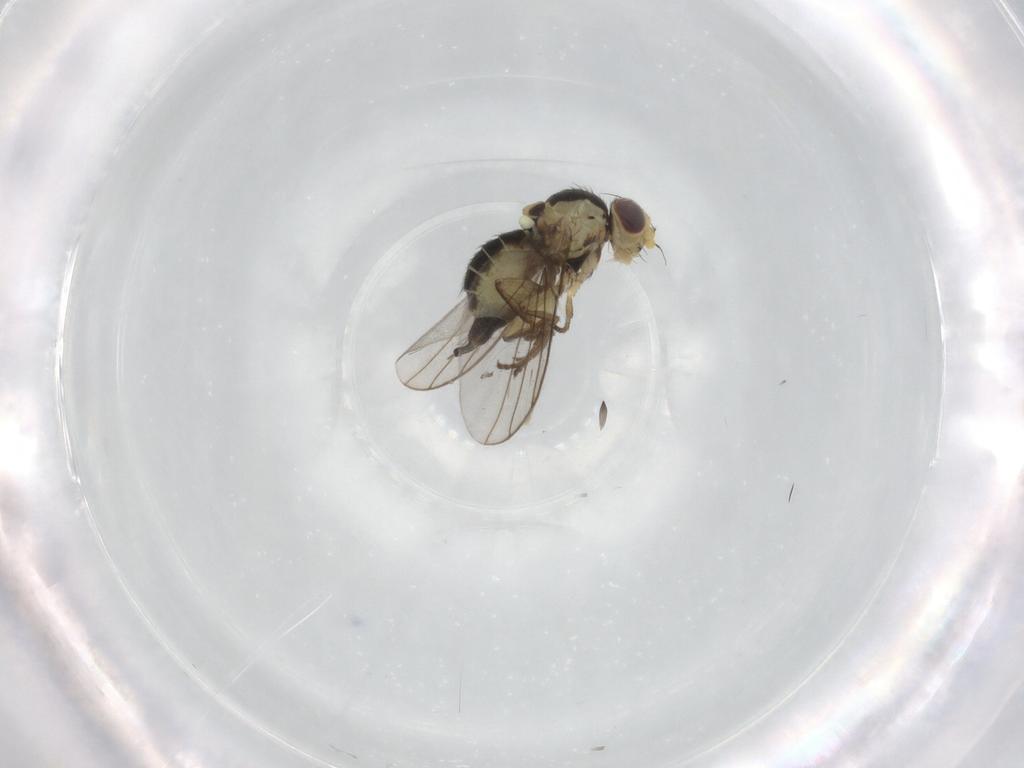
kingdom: Animalia
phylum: Arthropoda
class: Insecta
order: Diptera
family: Agromyzidae
